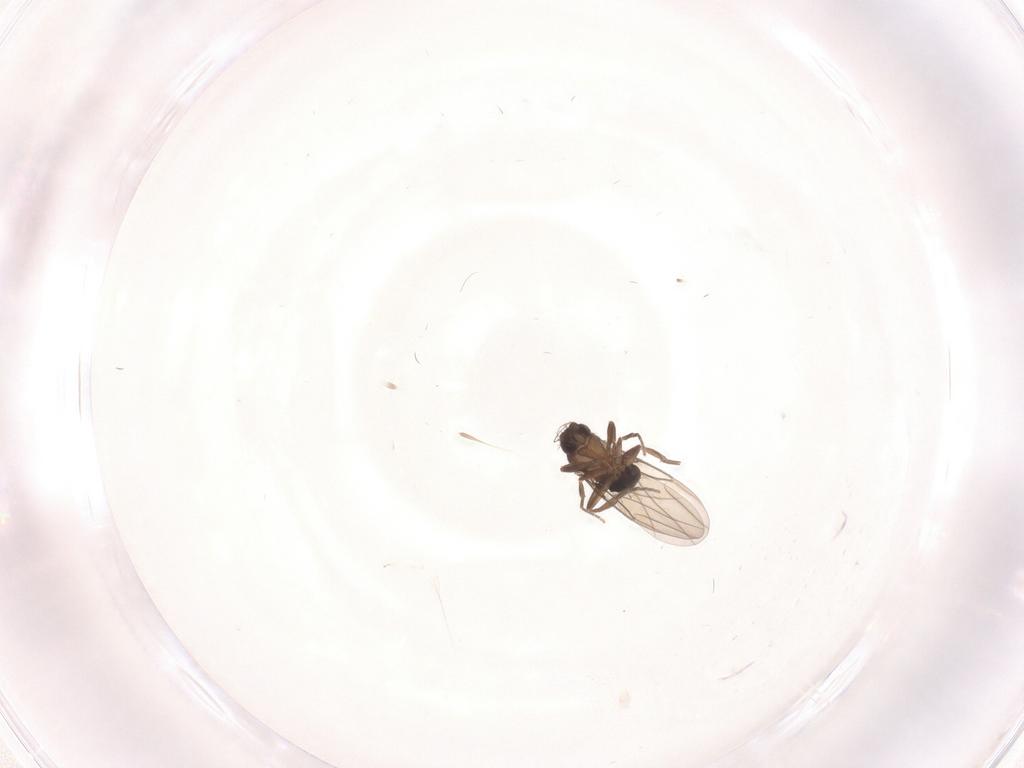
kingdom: Animalia
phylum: Arthropoda
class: Insecta
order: Diptera
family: Phoridae
